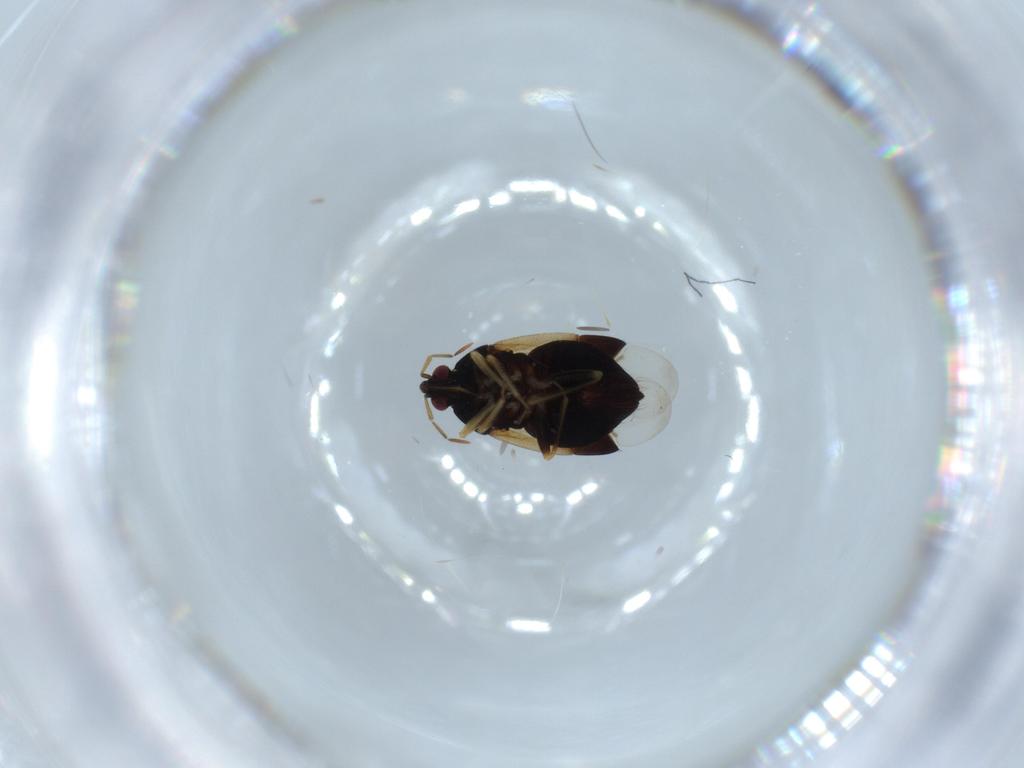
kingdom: Animalia
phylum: Arthropoda
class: Insecta
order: Hemiptera
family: Anthocoridae
